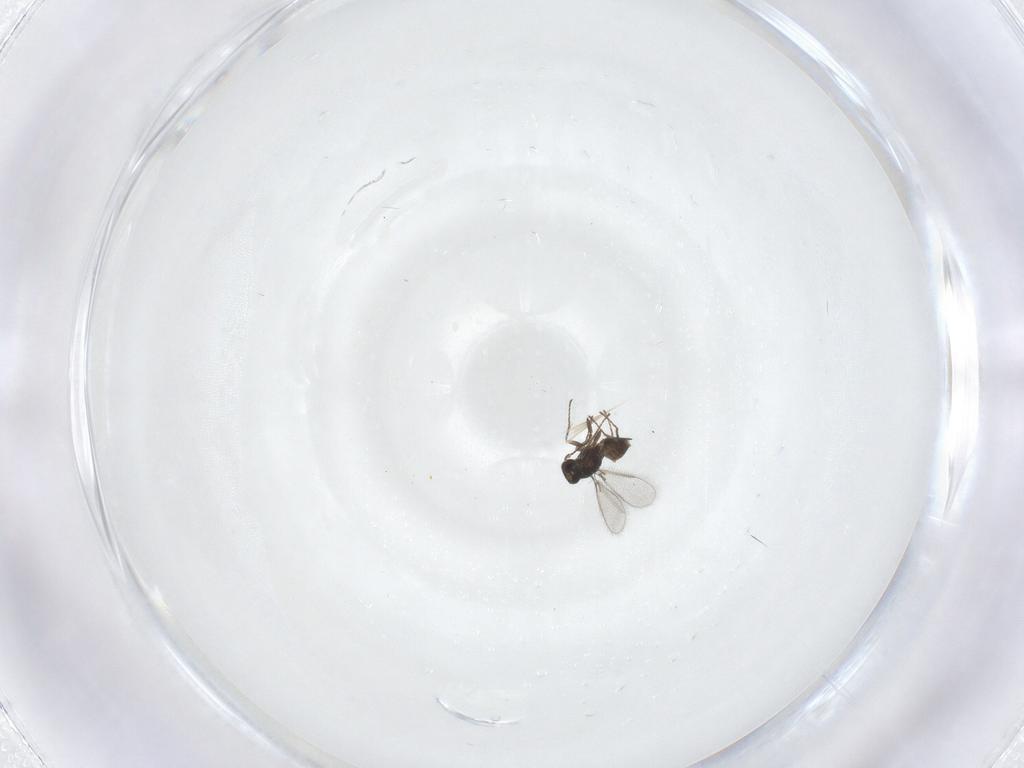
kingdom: Animalia
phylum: Arthropoda
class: Insecta
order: Hymenoptera
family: Mymaridae
